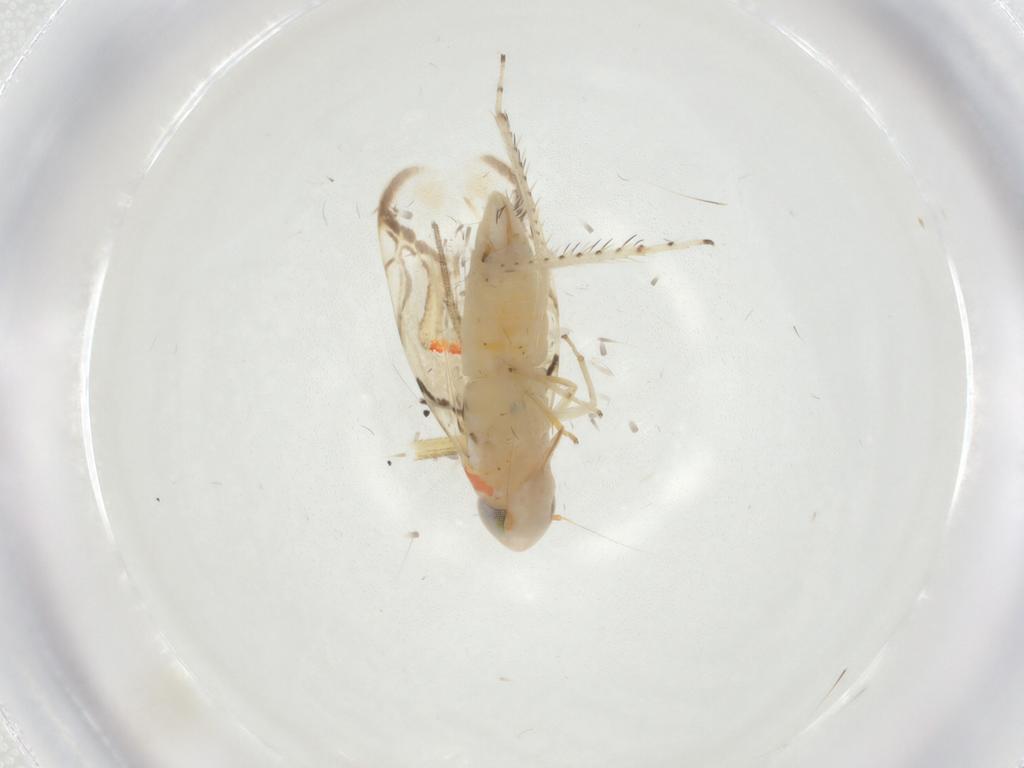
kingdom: Animalia
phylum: Arthropoda
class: Insecta
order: Hemiptera
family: Cicadellidae
